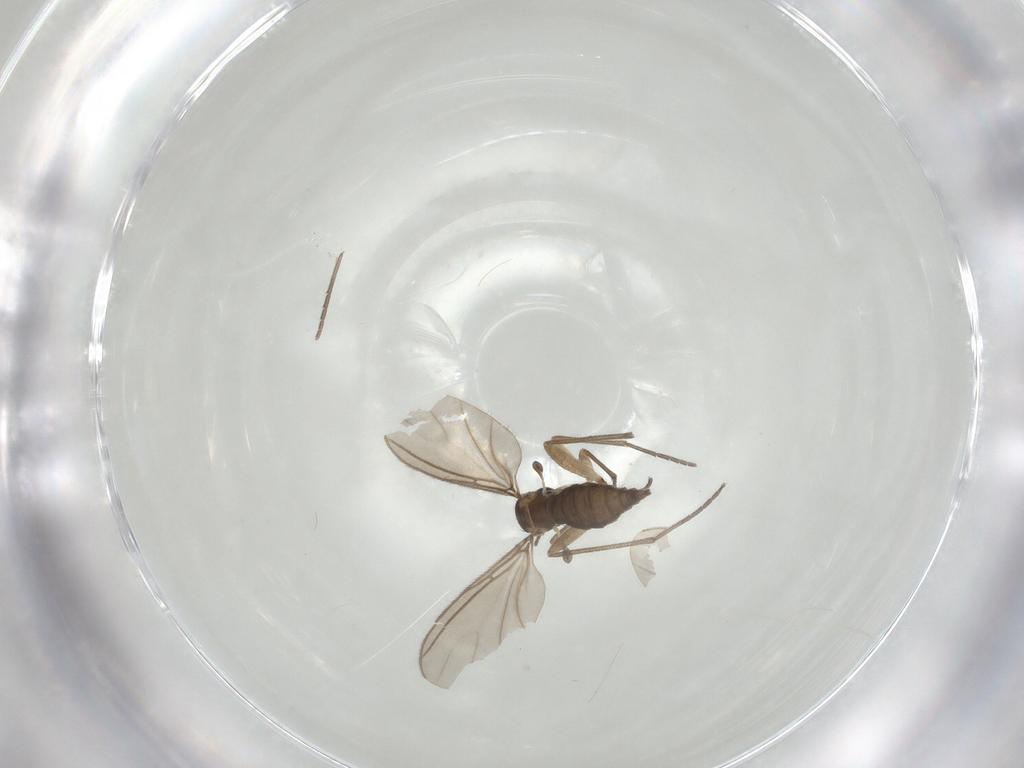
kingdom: Animalia
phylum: Arthropoda
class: Insecta
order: Diptera
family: Sciaridae
